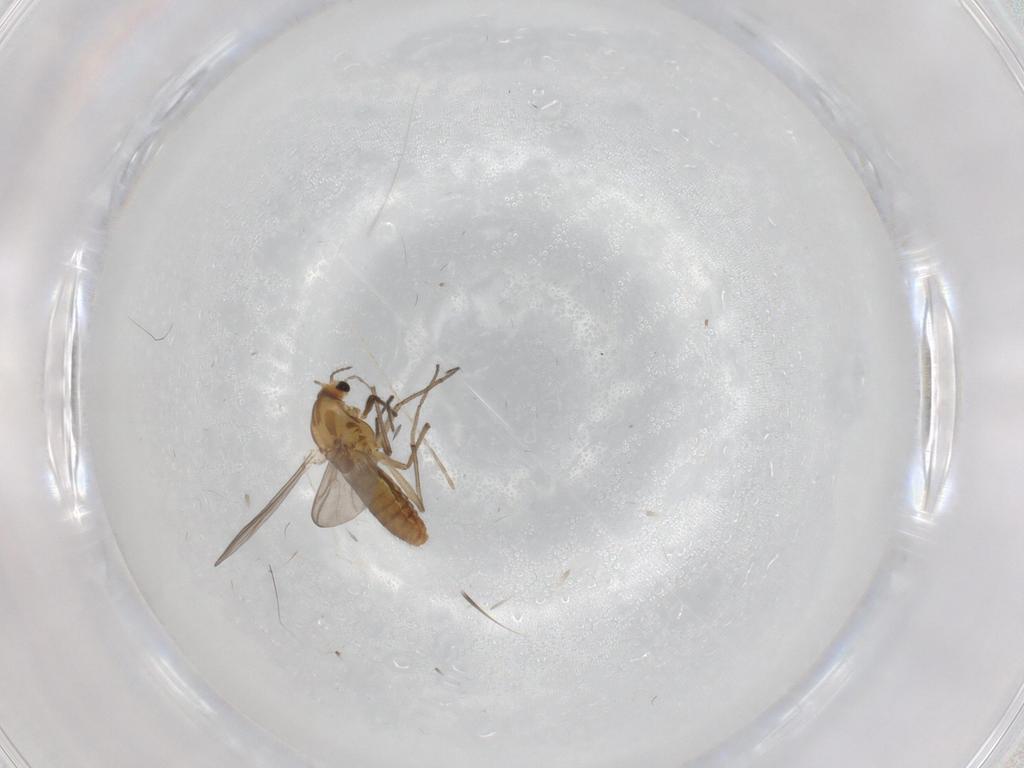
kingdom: Animalia
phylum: Arthropoda
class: Insecta
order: Diptera
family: Chironomidae
